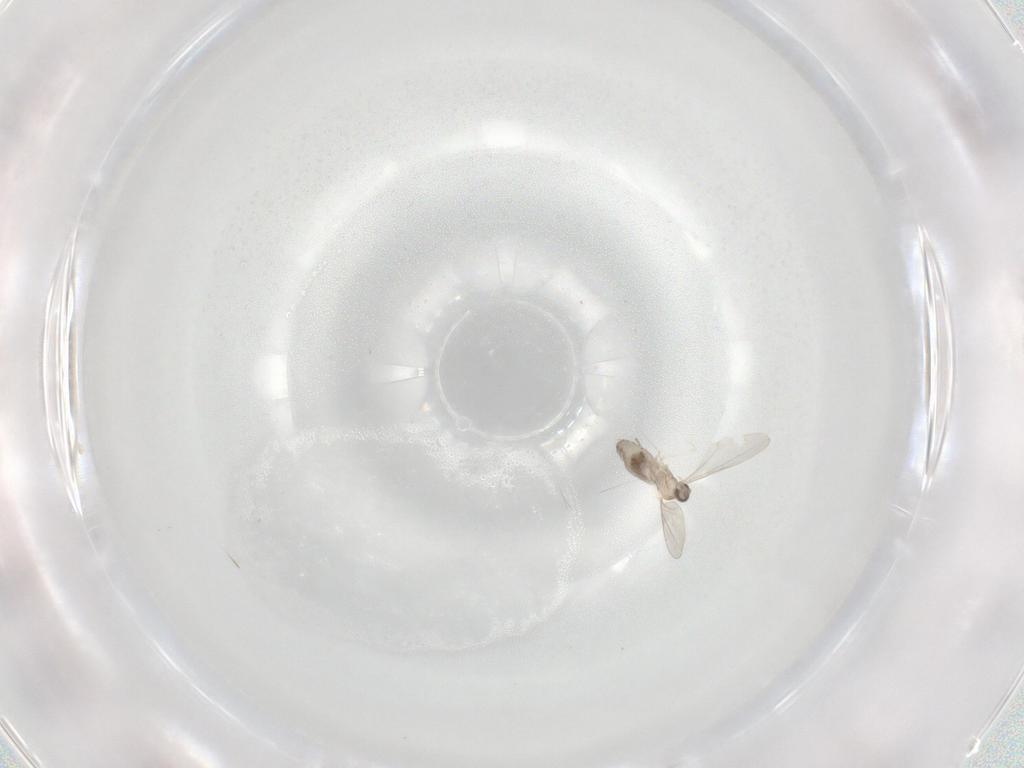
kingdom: Animalia
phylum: Arthropoda
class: Insecta
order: Diptera
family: Cecidomyiidae
